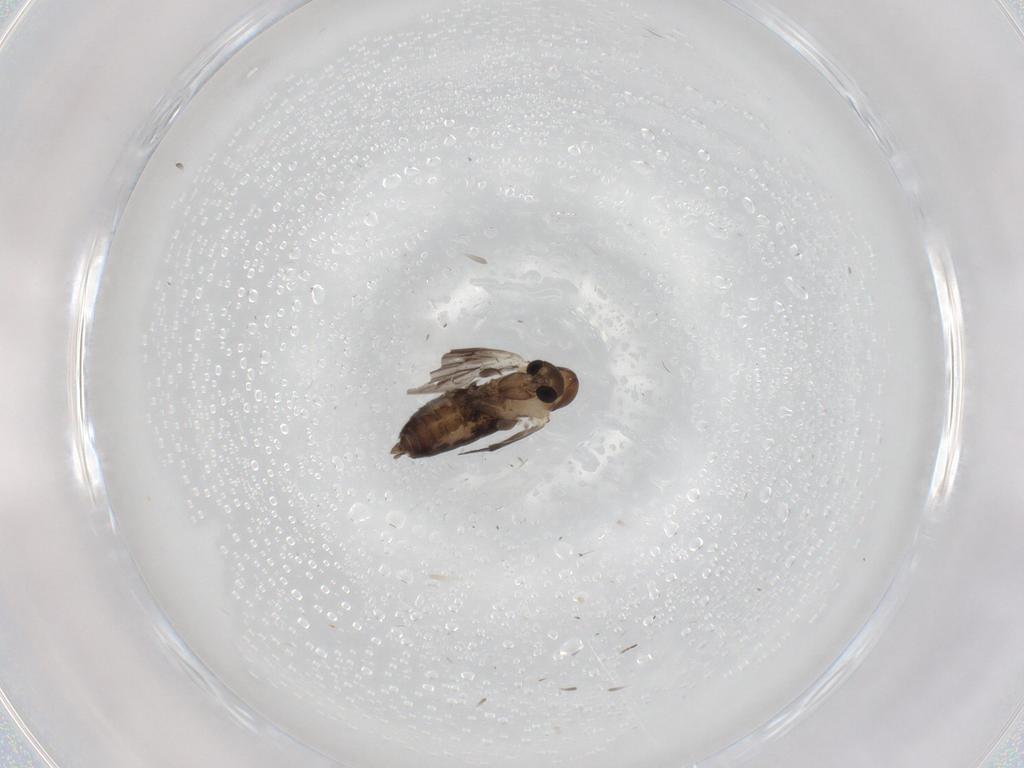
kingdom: Animalia
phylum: Arthropoda
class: Insecta
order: Diptera
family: Psychodidae
